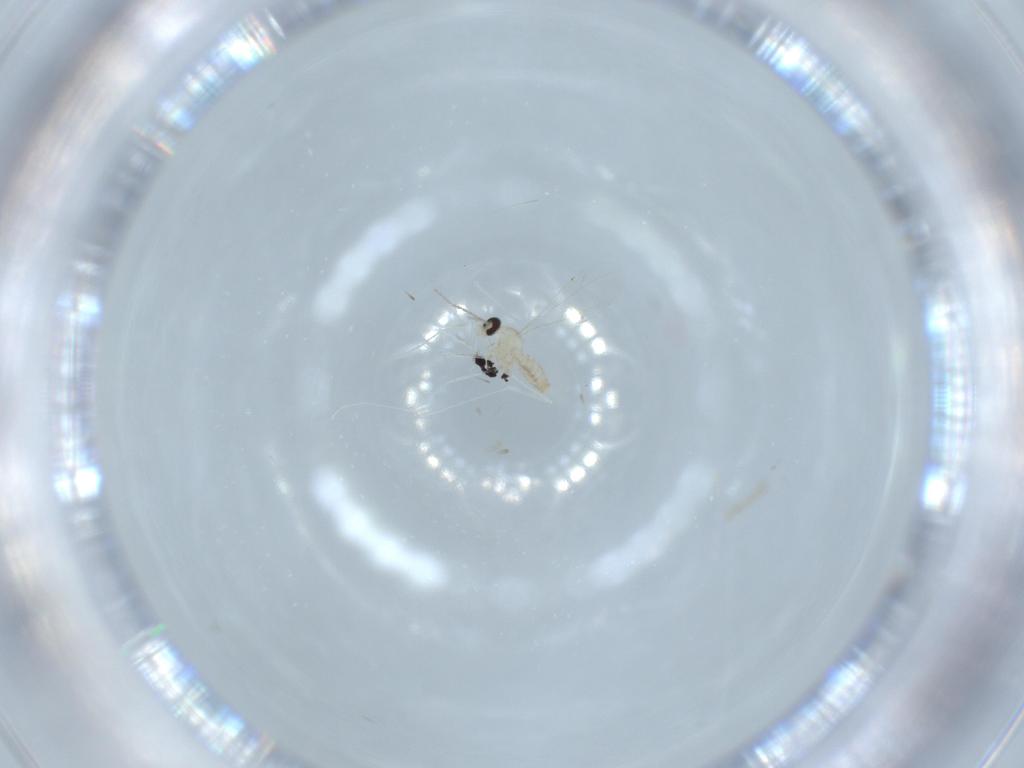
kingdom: Animalia
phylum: Arthropoda
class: Insecta
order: Diptera
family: Cecidomyiidae
